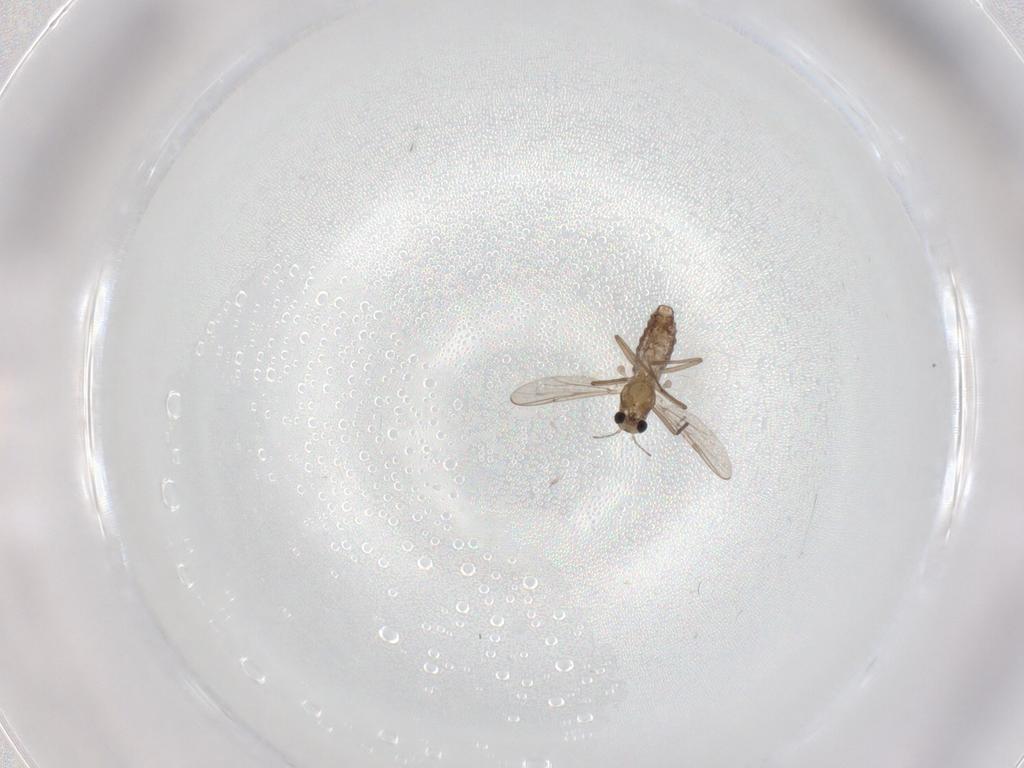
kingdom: Animalia
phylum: Arthropoda
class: Insecta
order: Diptera
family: Chironomidae
